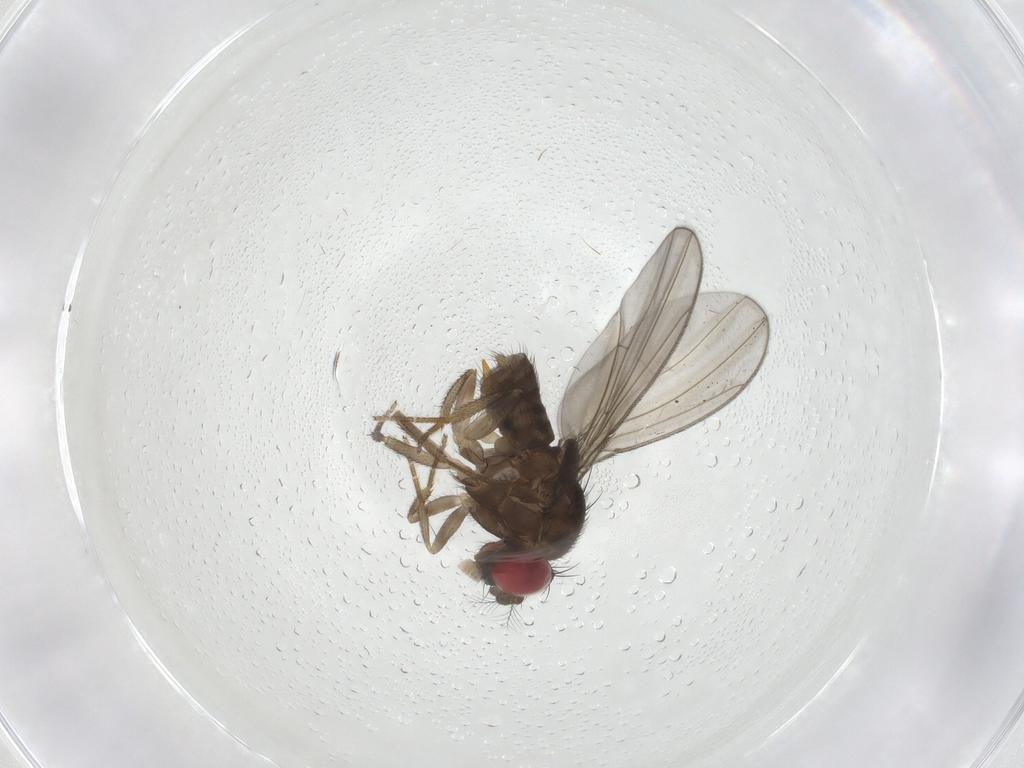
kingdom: Animalia
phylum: Arthropoda
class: Insecta
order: Diptera
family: Drosophilidae
